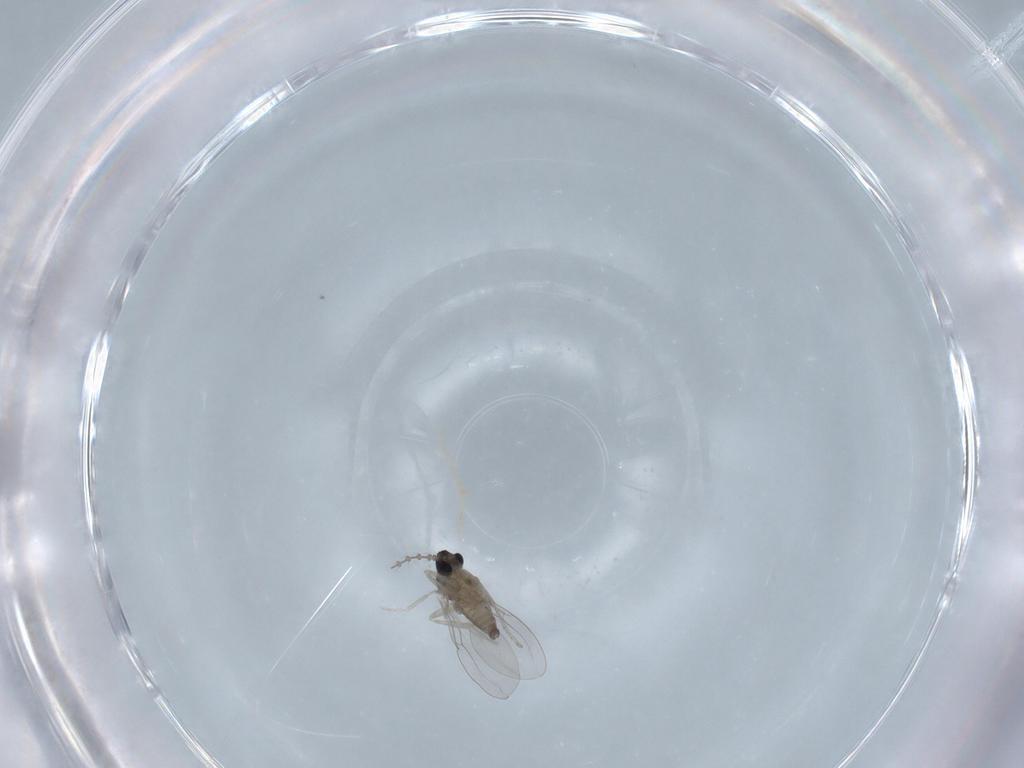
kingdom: Animalia
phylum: Arthropoda
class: Insecta
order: Diptera
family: Cecidomyiidae
